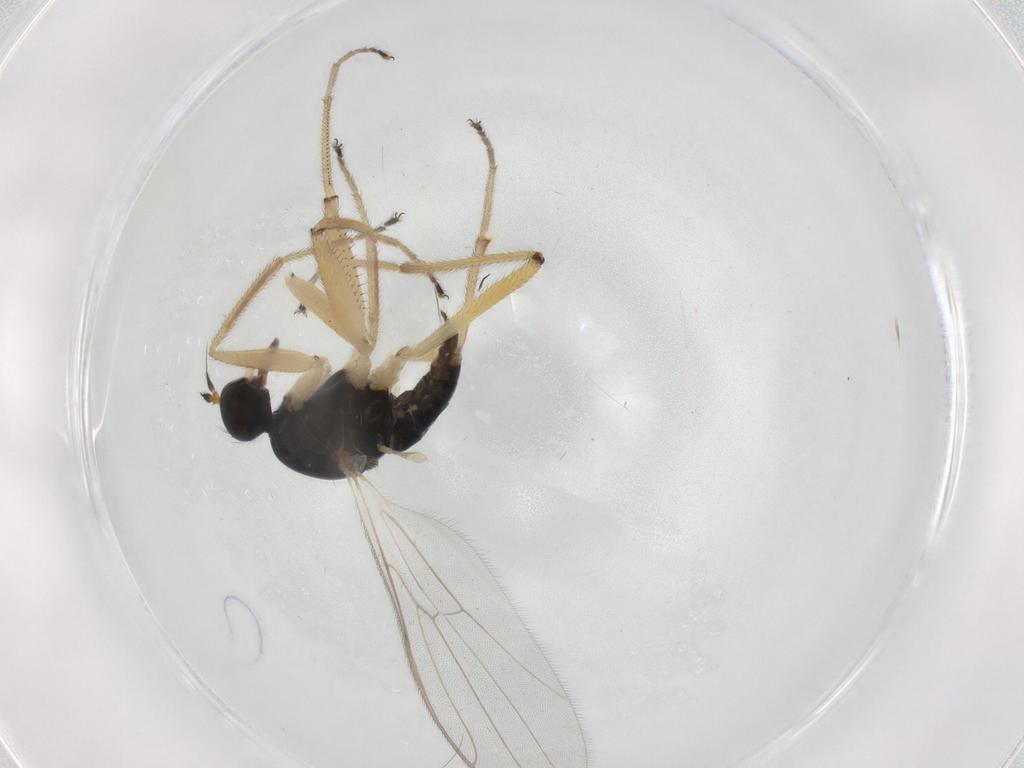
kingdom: Animalia
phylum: Arthropoda
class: Insecta
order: Diptera
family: Hybotidae
